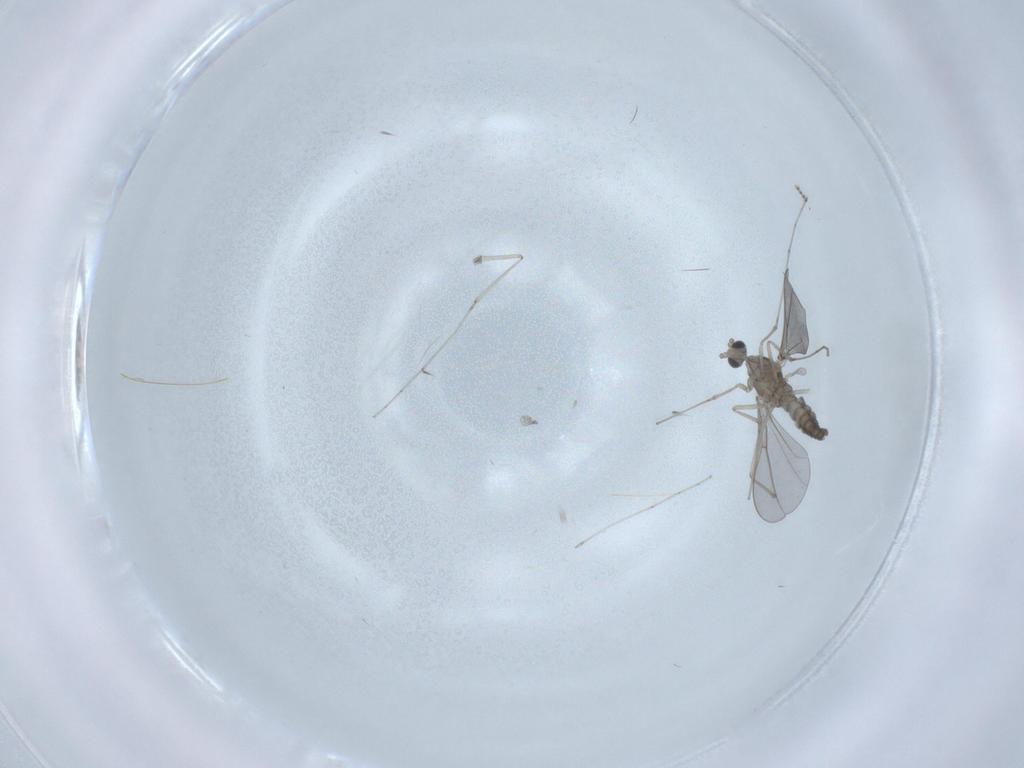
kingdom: Animalia
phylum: Arthropoda
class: Insecta
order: Diptera
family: Cecidomyiidae
